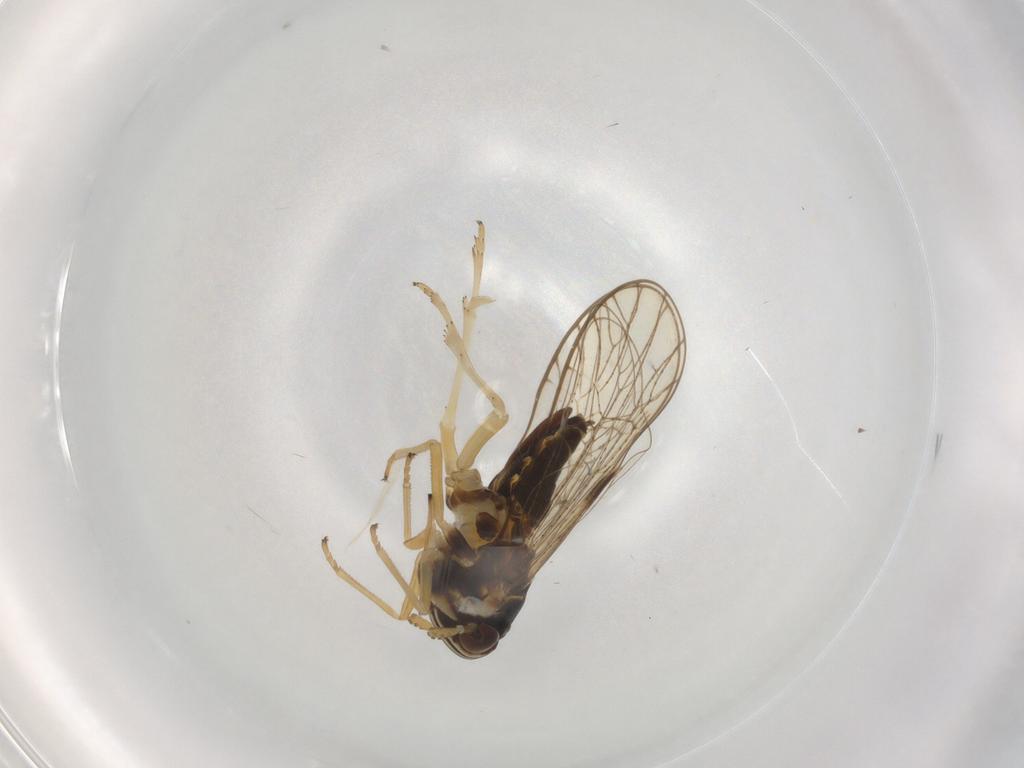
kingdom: Animalia
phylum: Arthropoda
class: Insecta
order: Hemiptera
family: Cicadellidae
